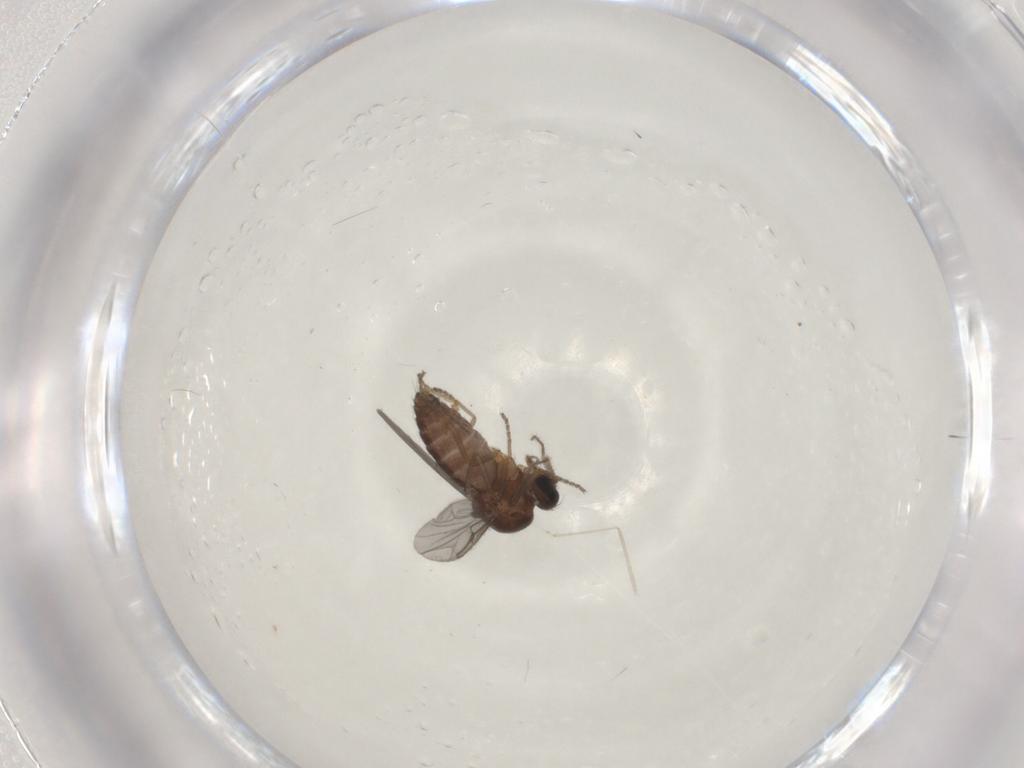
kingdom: Animalia
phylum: Arthropoda
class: Insecta
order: Diptera
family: Ceratopogonidae
